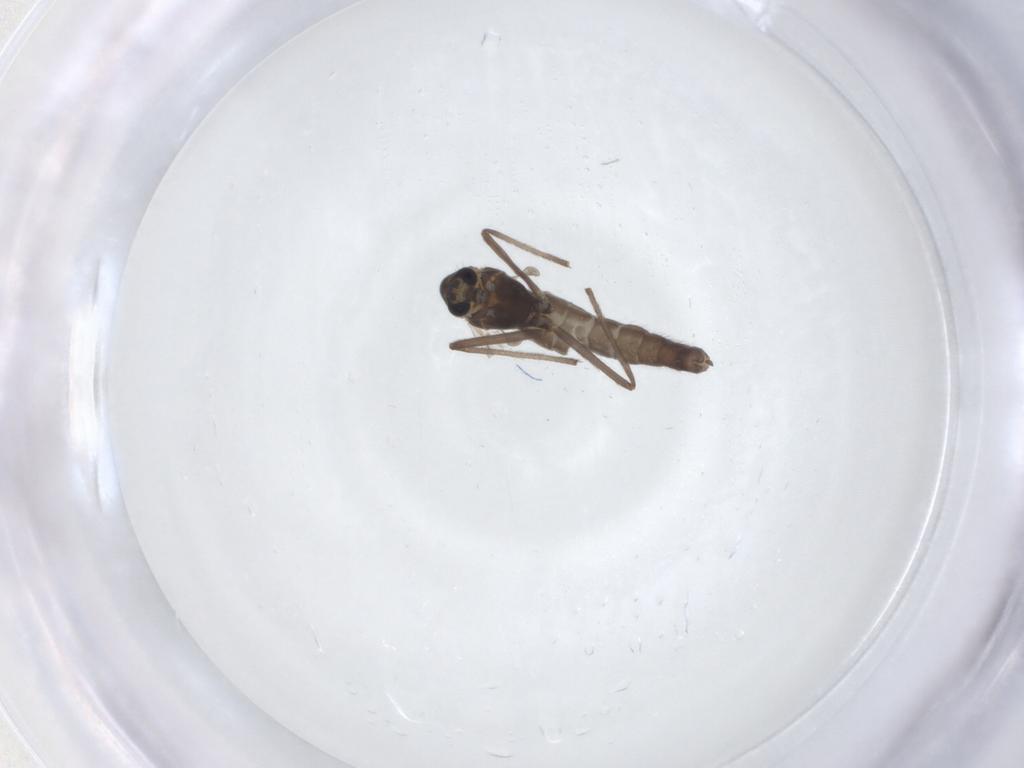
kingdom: Animalia
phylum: Arthropoda
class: Insecta
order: Diptera
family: Chironomidae
